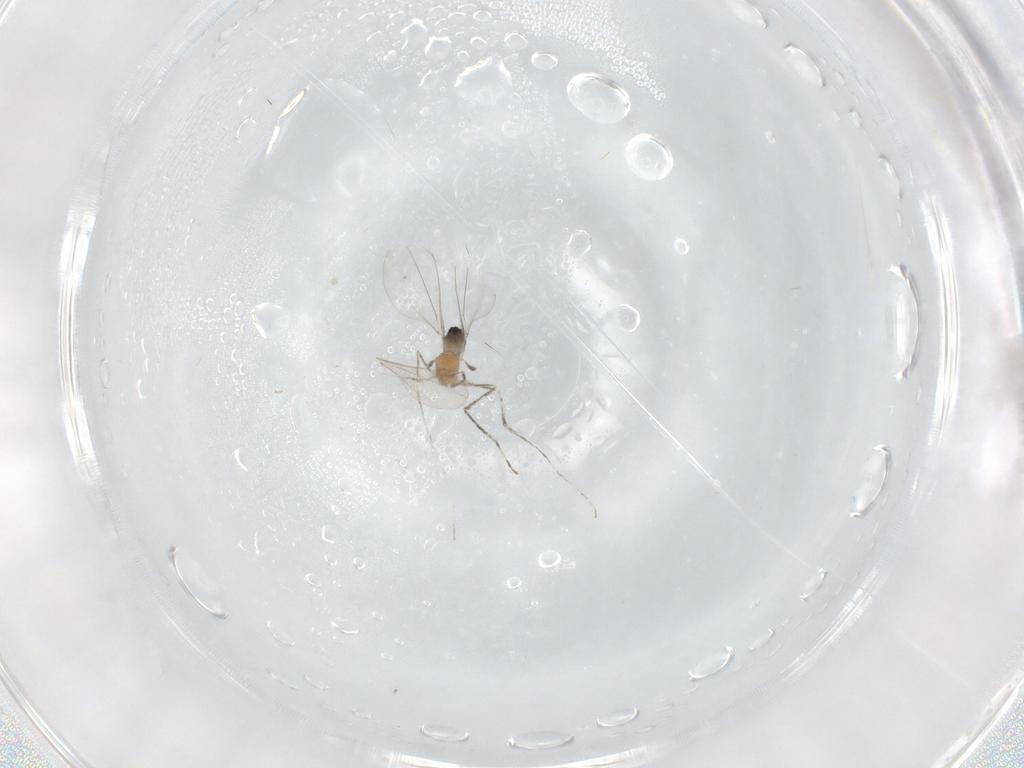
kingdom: Animalia
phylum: Arthropoda
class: Insecta
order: Diptera
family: Cecidomyiidae
